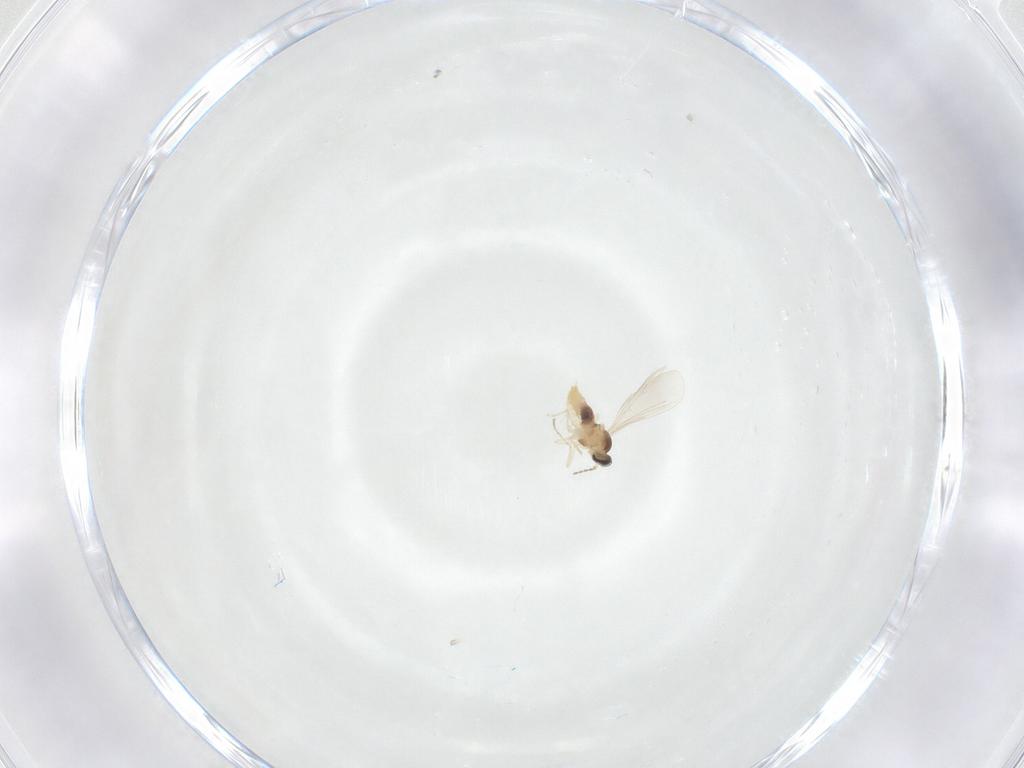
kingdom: Animalia
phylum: Arthropoda
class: Insecta
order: Diptera
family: Cecidomyiidae
